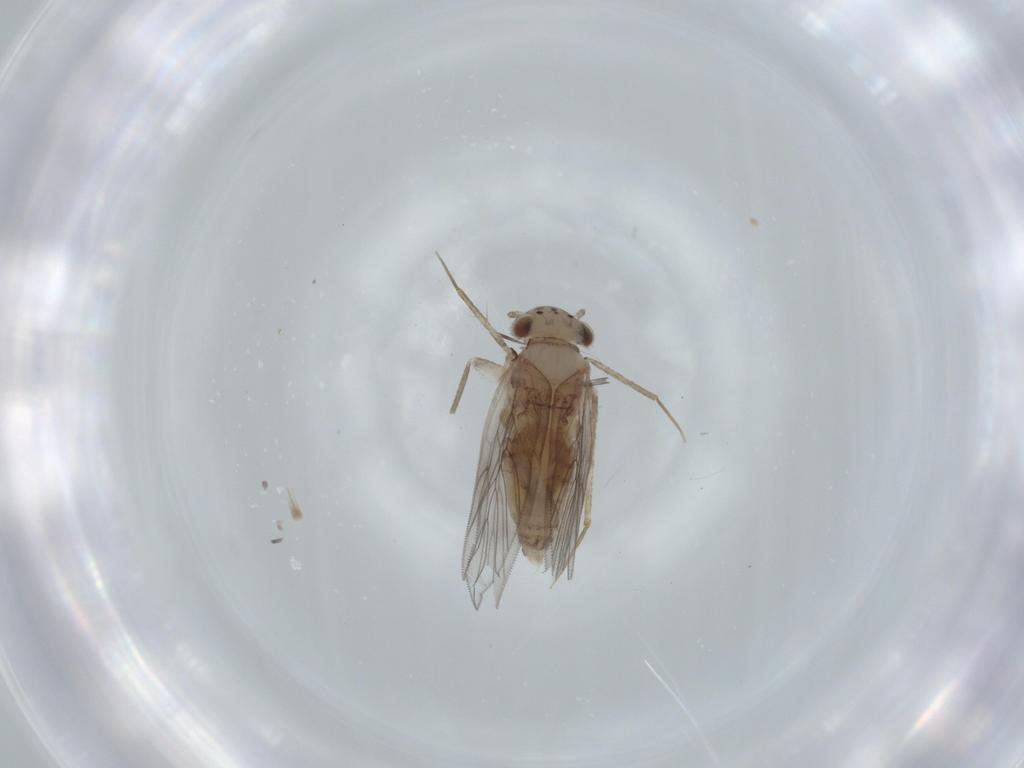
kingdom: Animalia
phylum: Arthropoda
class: Insecta
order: Psocodea
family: Lepidopsocidae
